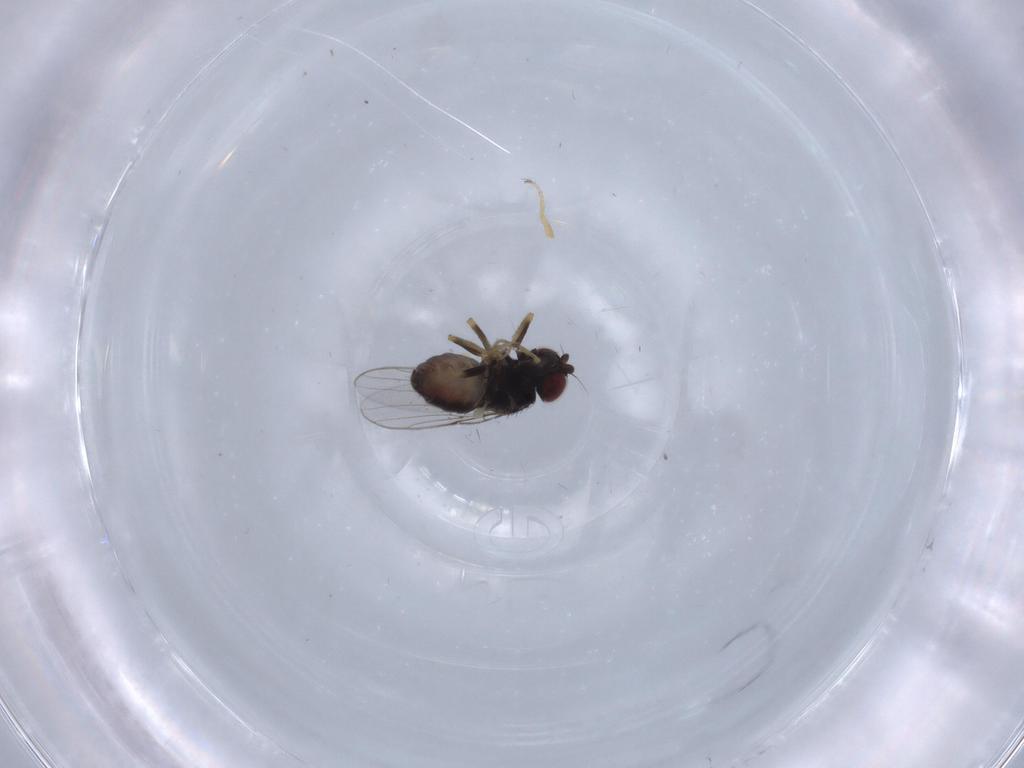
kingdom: Animalia
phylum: Arthropoda
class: Insecta
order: Diptera
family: Chloropidae
